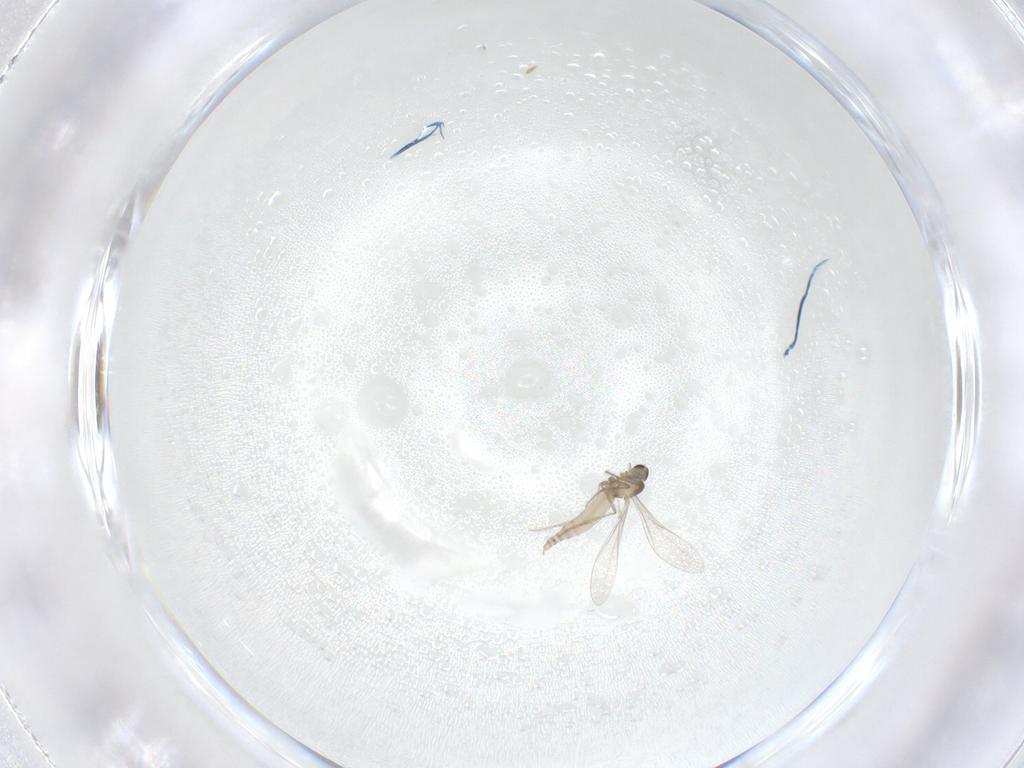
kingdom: Animalia
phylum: Arthropoda
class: Insecta
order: Diptera
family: Cecidomyiidae
